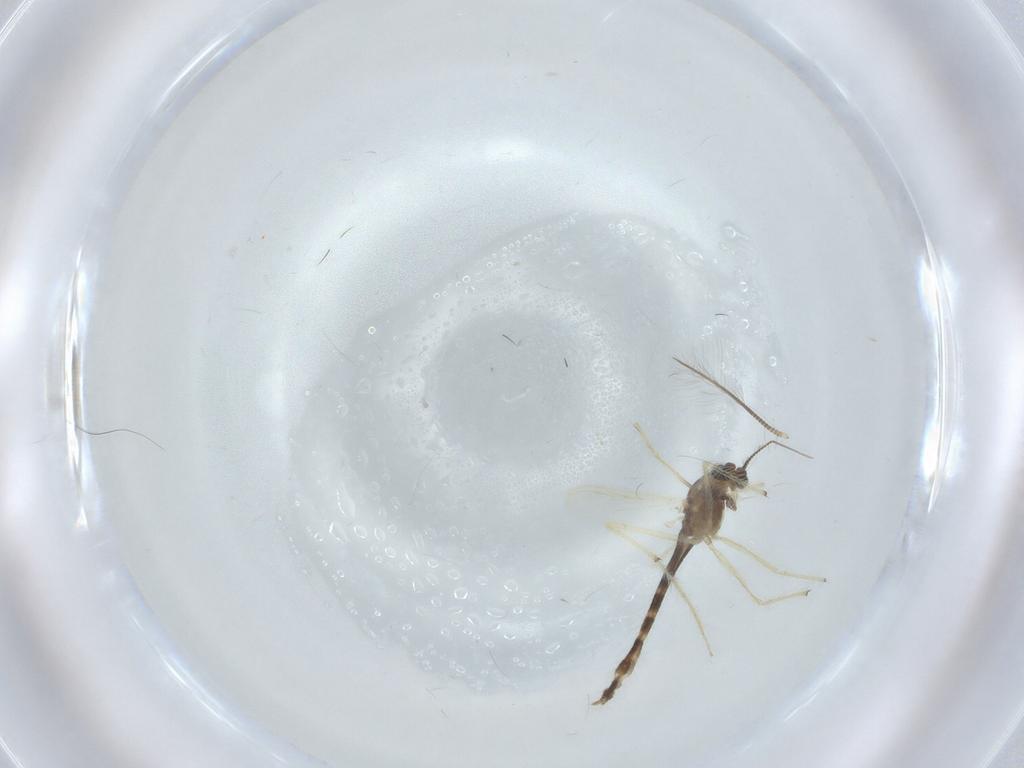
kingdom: Animalia
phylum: Arthropoda
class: Insecta
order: Diptera
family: Chironomidae
